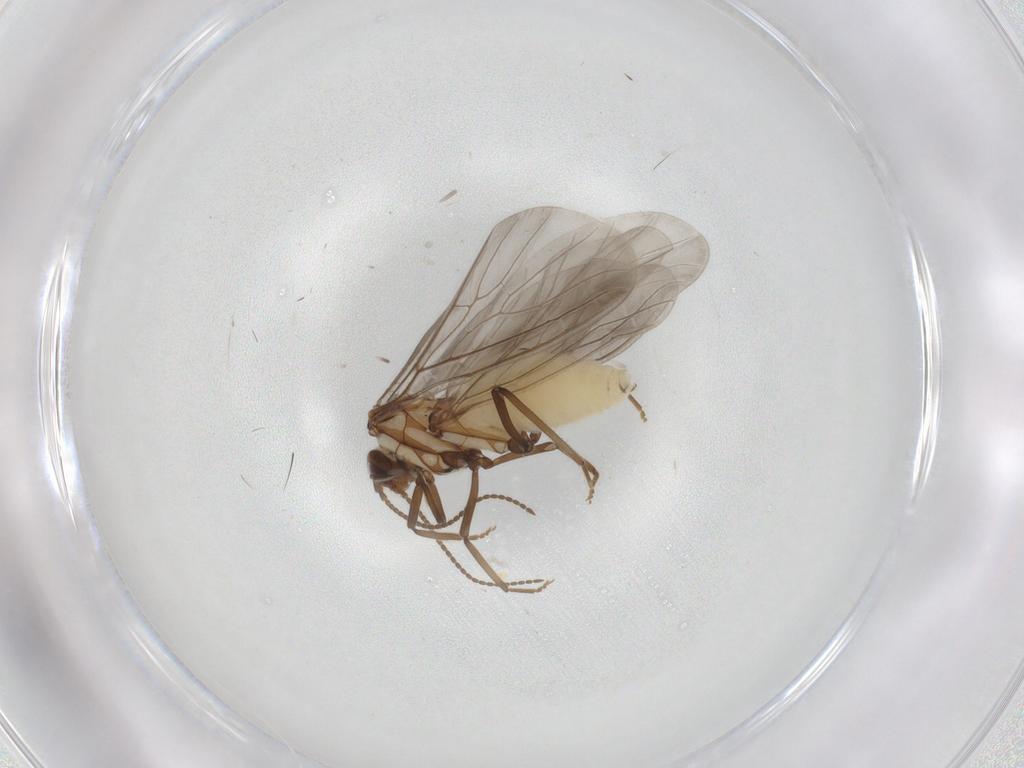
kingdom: Animalia
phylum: Arthropoda
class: Insecta
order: Neuroptera
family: Coniopterygidae
